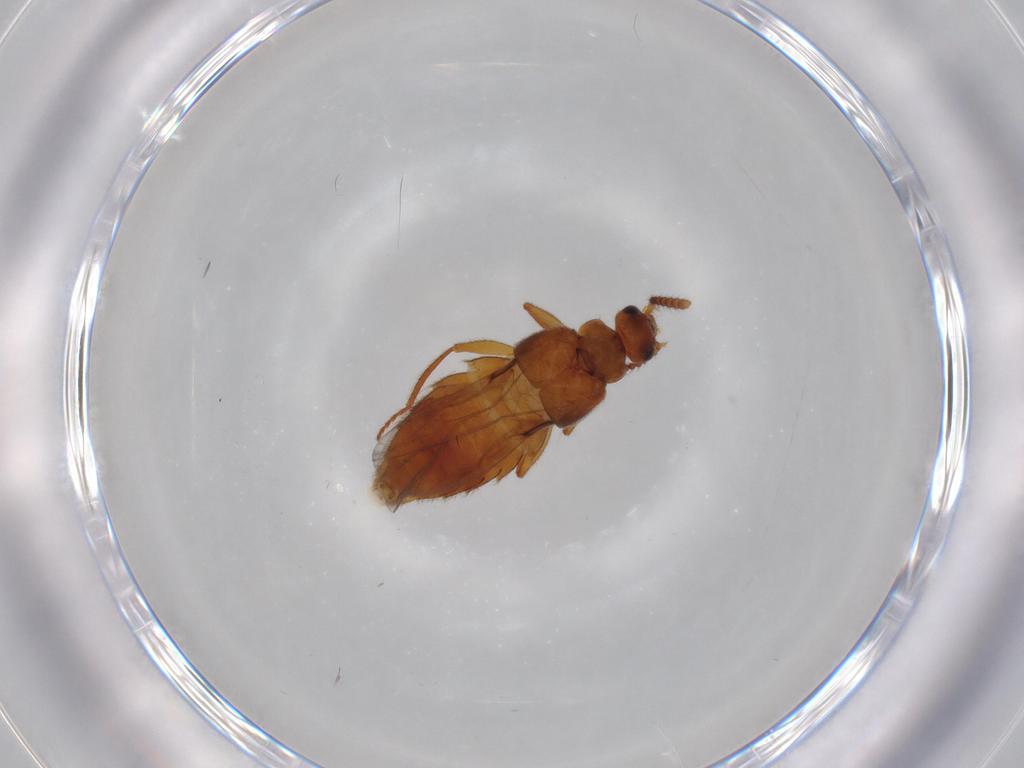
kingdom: Animalia
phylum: Arthropoda
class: Insecta
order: Coleoptera
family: Staphylinidae
